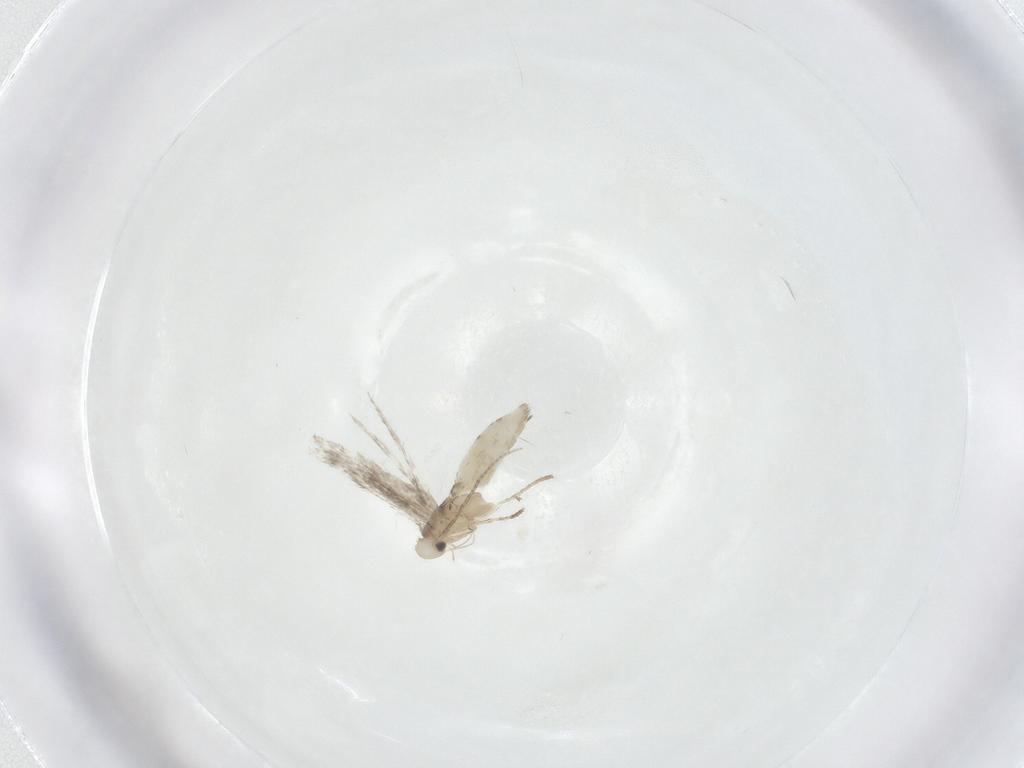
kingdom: Animalia
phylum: Arthropoda
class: Insecta
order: Lepidoptera
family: Gracillariidae
